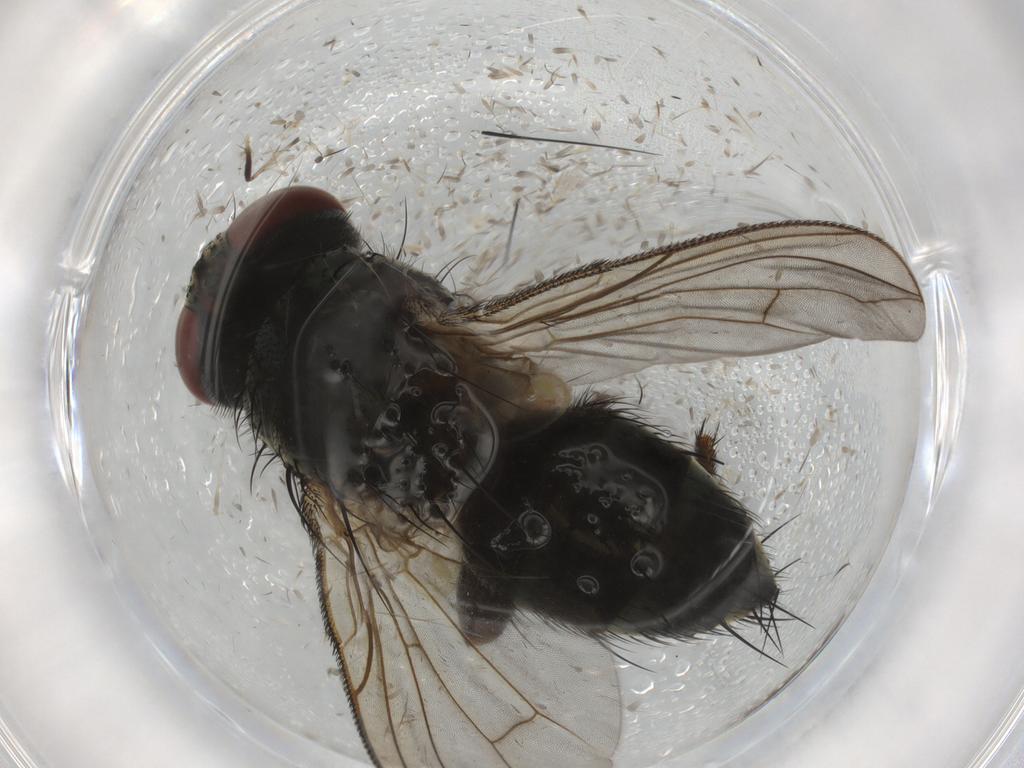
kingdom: Animalia
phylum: Arthropoda
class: Insecta
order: Diptera
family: Tachinidae
